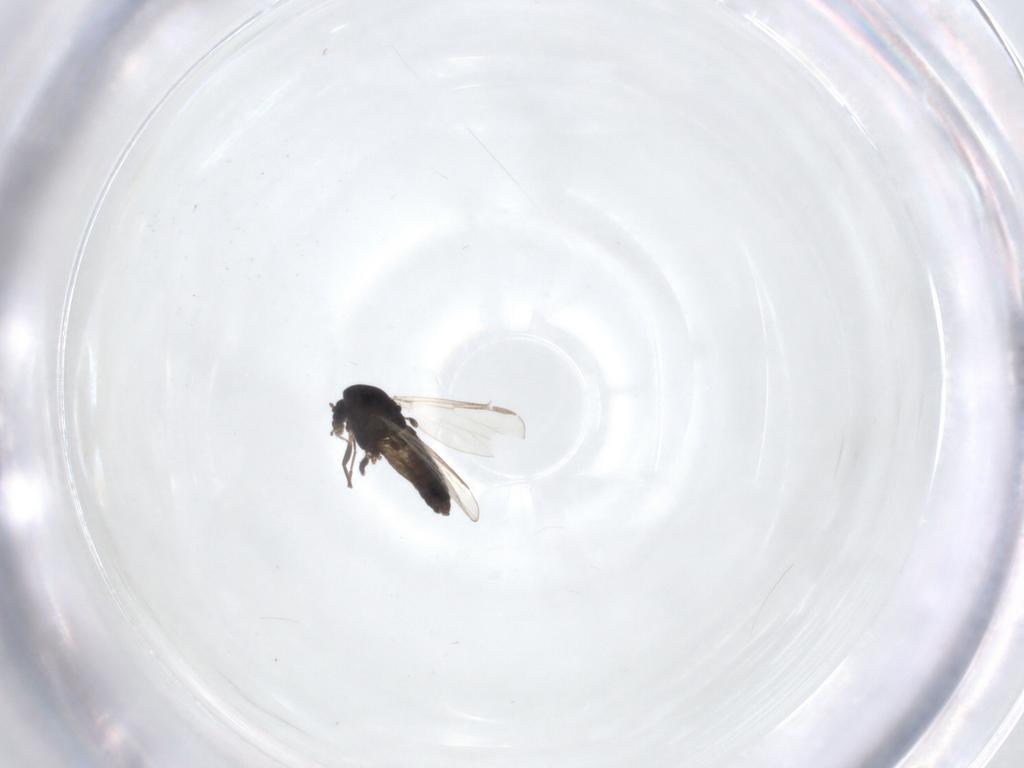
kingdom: Animalia
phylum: Arthropoda
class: Insecta
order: Diptera
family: Chironomidae
